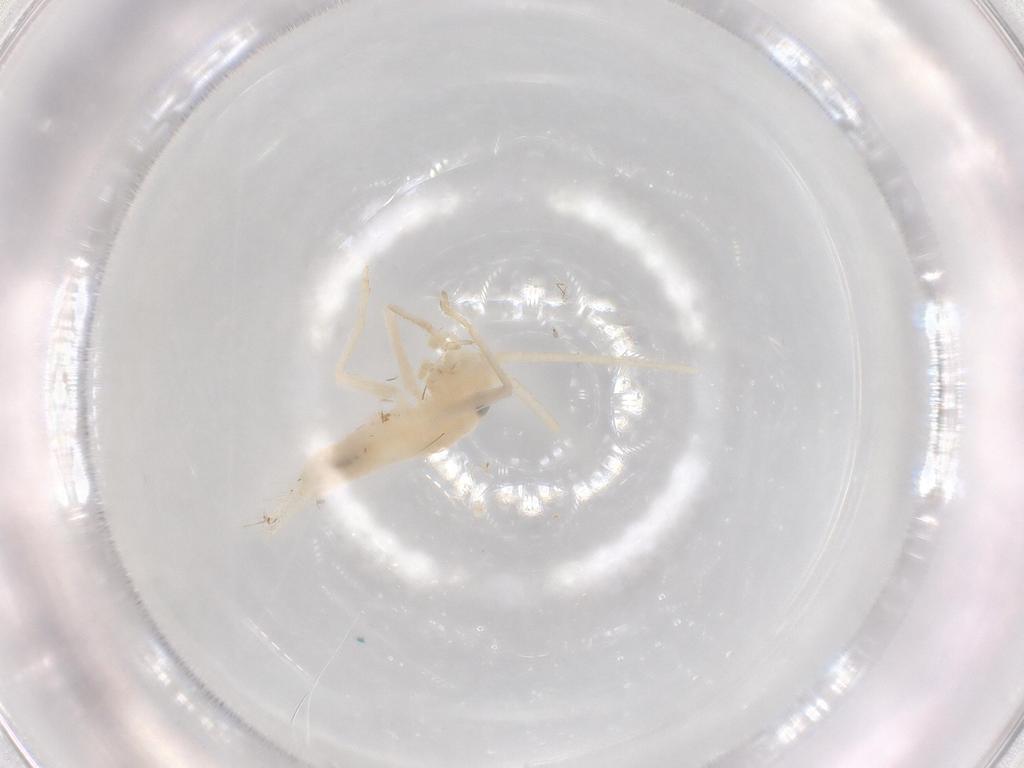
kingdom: Animalia
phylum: Arthropoda
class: Insecta
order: Orthoptera
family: Trigonidiidae
